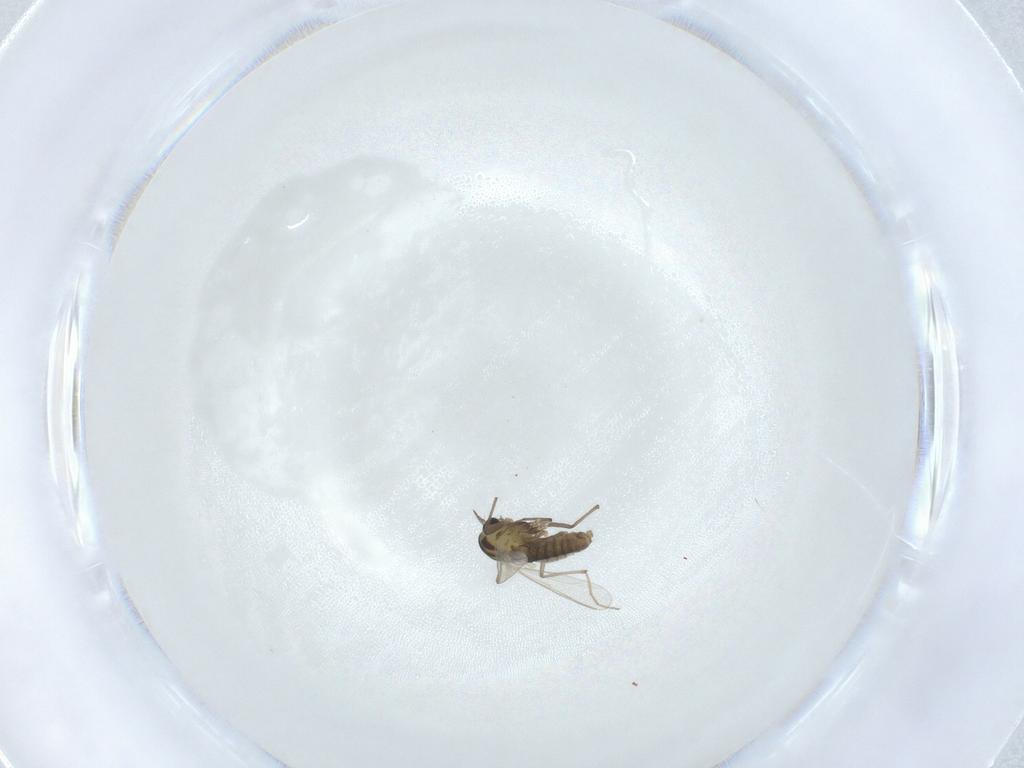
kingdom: Animalia
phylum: Arthropoda
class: Insecta
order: Diptera
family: Chironomidae
